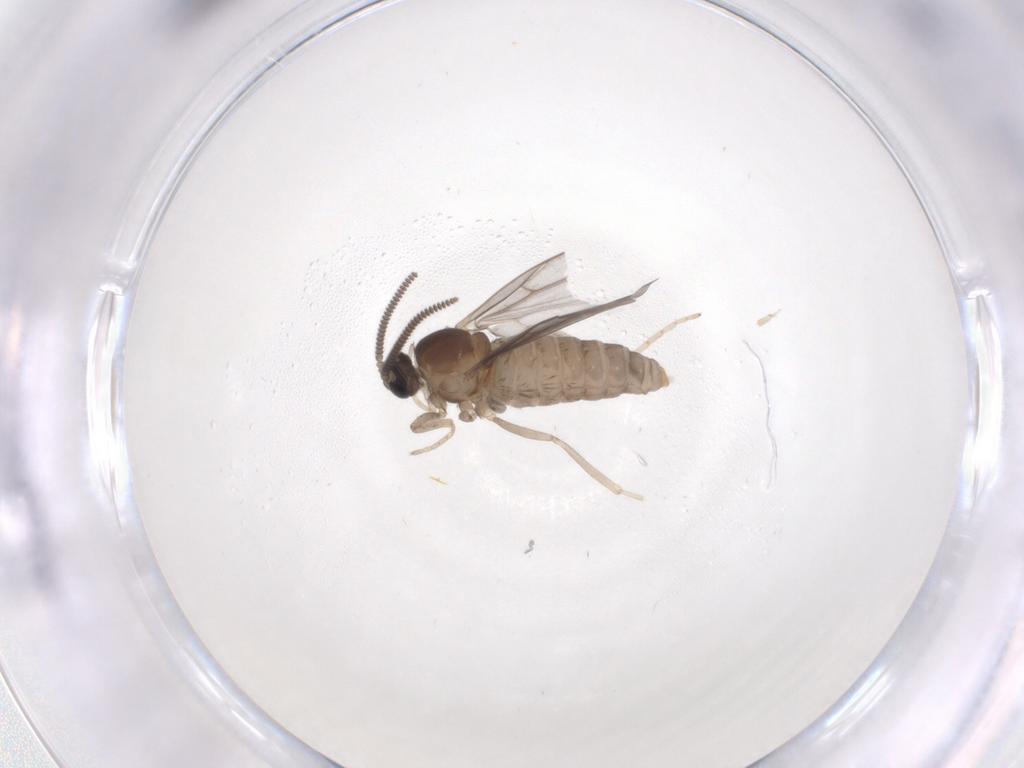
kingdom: Animalia
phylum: Arthropoda
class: Insecta
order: Diptera
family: Cecidomyiidae
